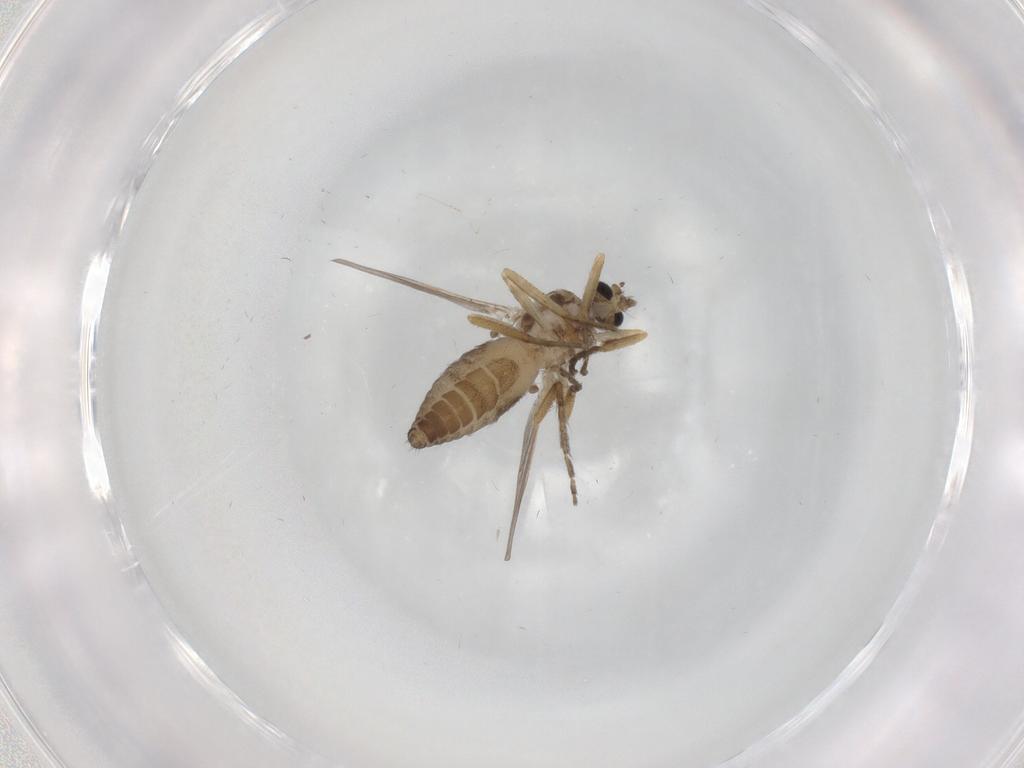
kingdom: Animalia
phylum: Arthropoda
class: Insecta
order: Diptera
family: Ceratopogonidae
